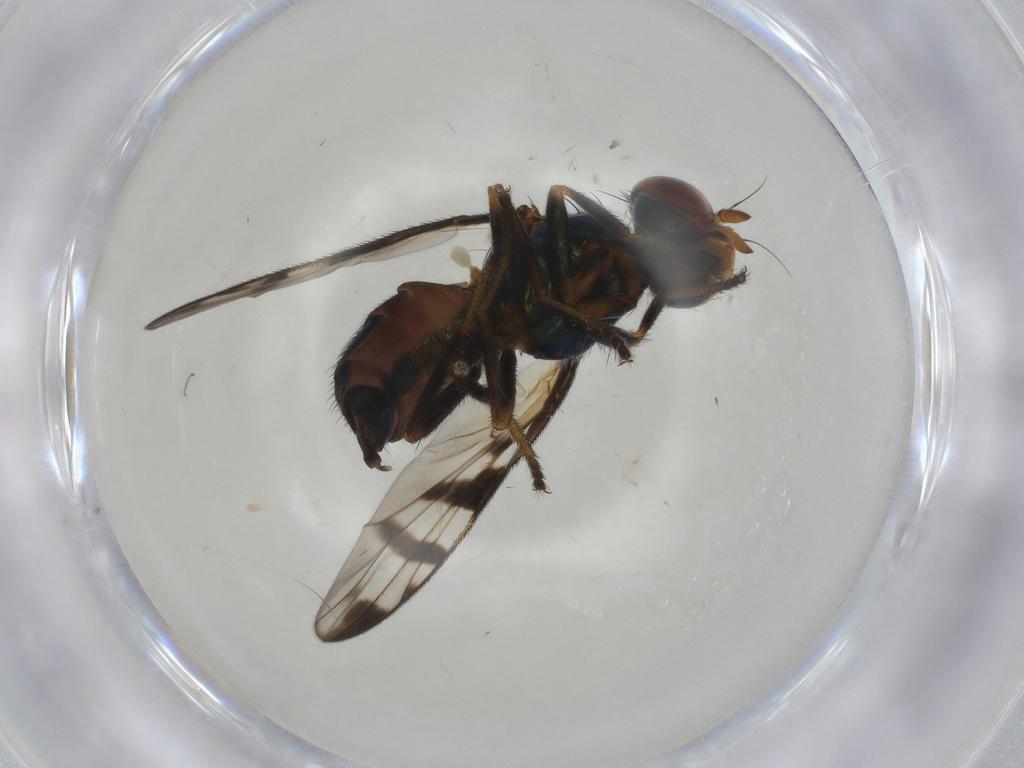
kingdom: Animalia
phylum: Arthropoda
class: Insecta
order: Diptera
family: Platystomatidae
